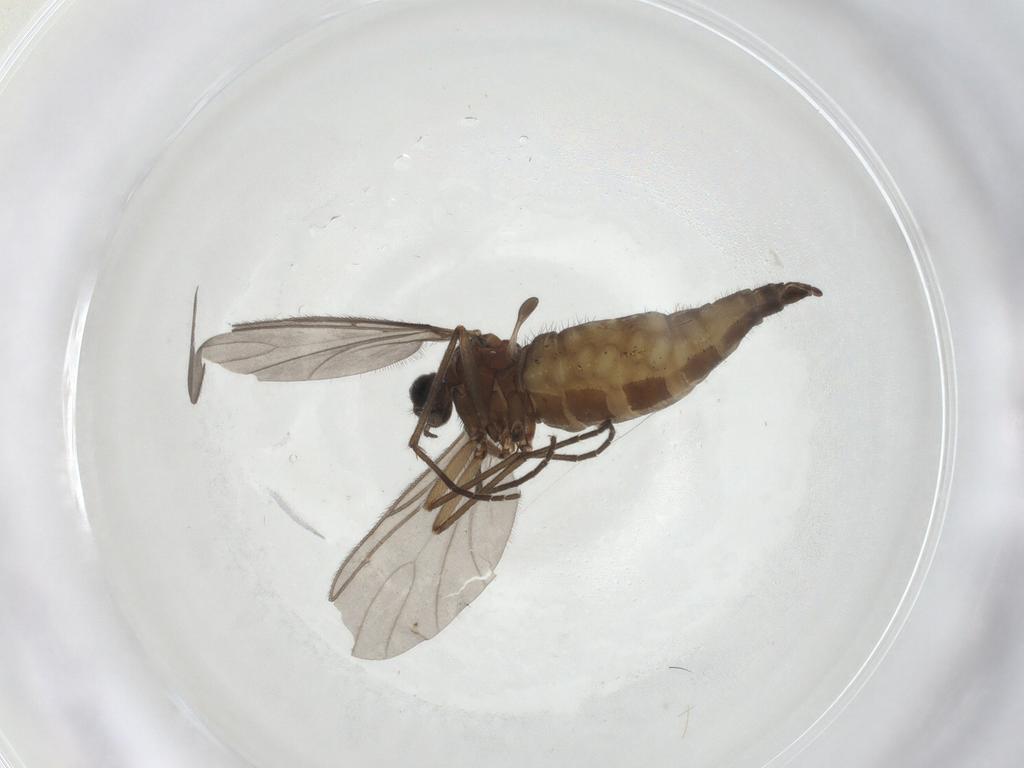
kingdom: Animalia
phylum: Arthropoda
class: Insecta
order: Diptera
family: Sciaridae
